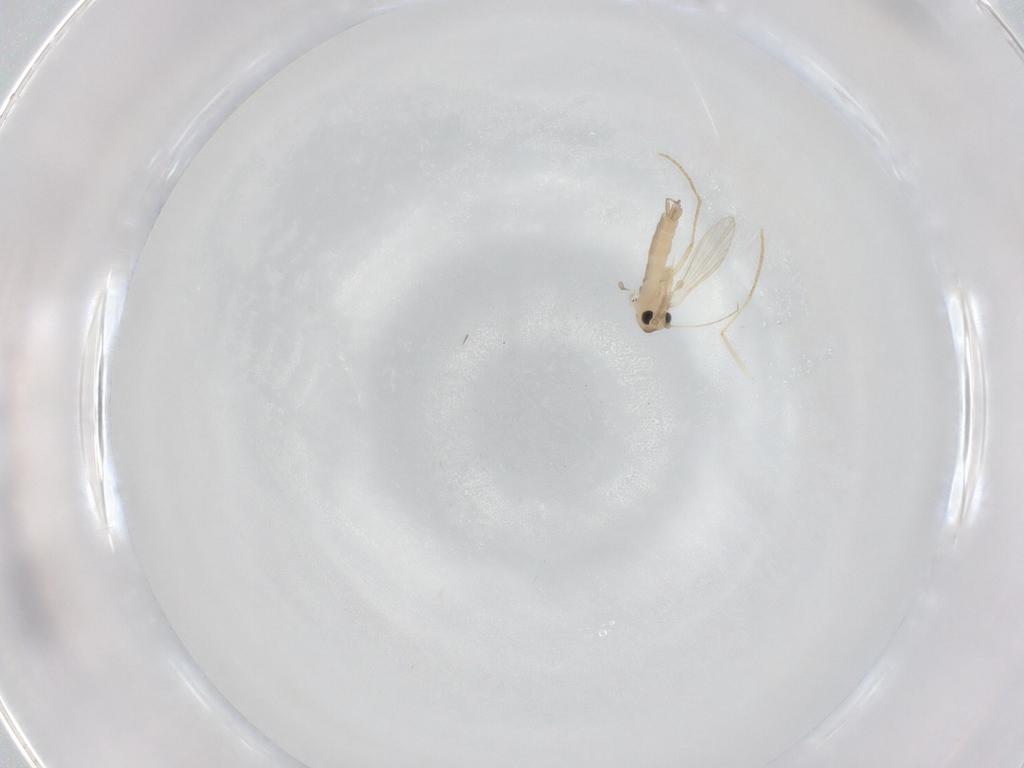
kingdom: Animalia
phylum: Arthropoda
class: Insecta
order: Diptera
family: Psychodidae
